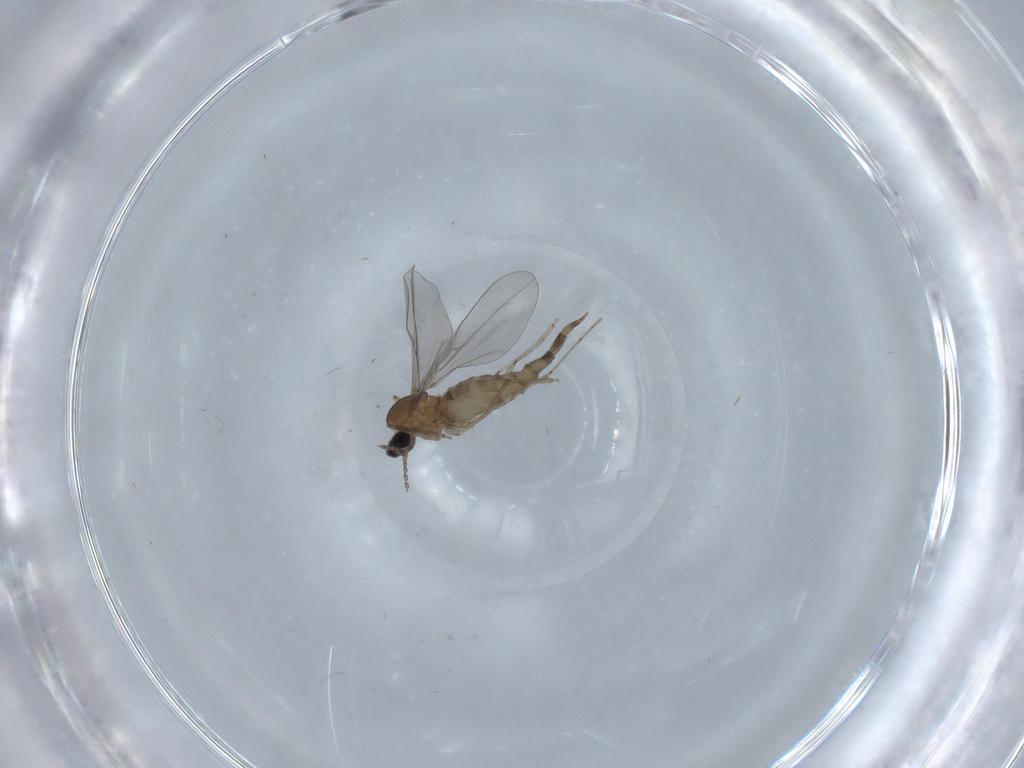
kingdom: Animalia
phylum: Arthropoda
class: Insecta
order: Diptera
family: Cecidomyiidae
